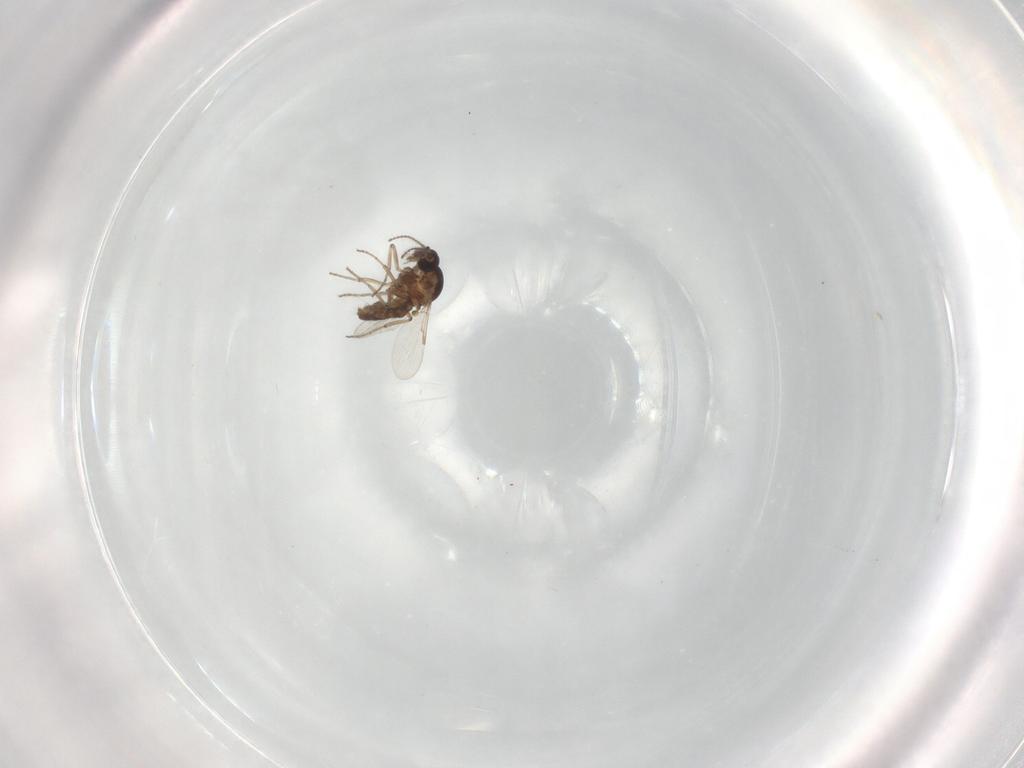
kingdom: Animalia
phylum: Arthropoda
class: Insecta
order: Diptera
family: Ceratopogonidae
